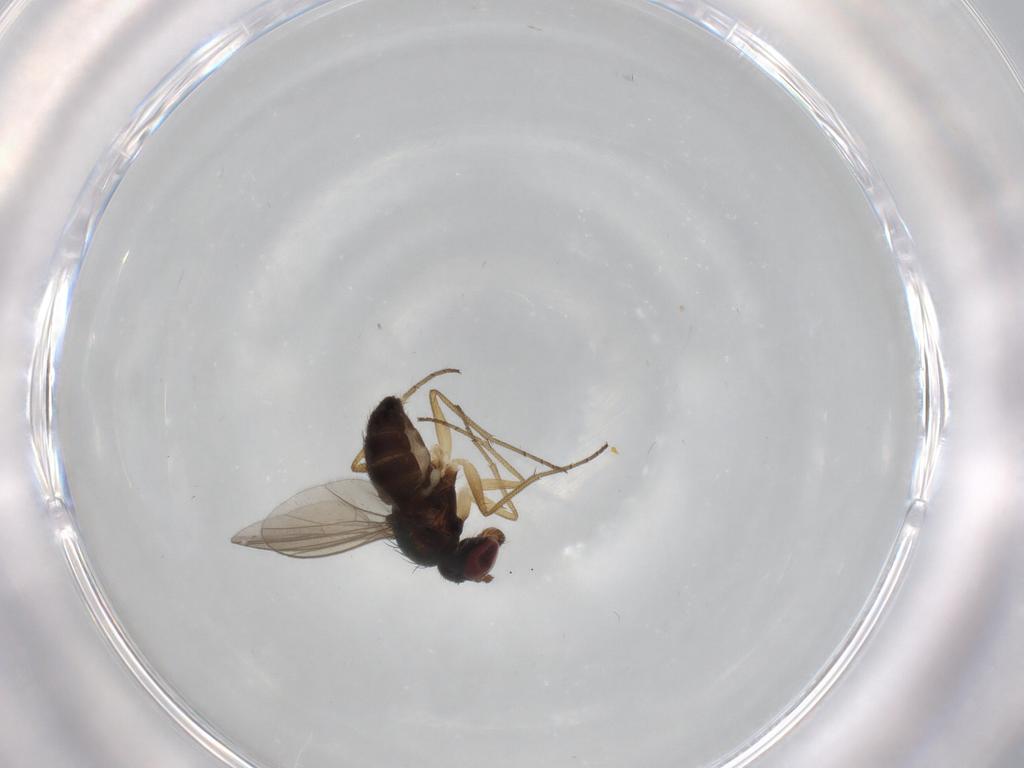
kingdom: Animalia
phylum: Arthropoda
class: Insecta
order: Diptera
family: Dolichopodidae
